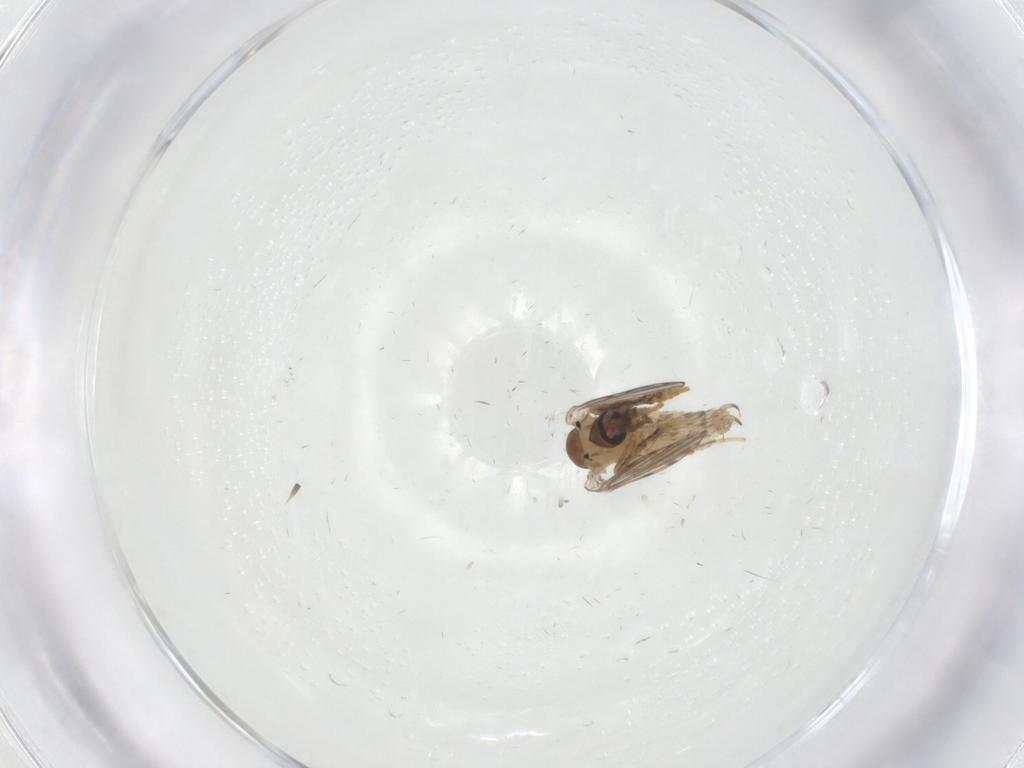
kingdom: Animalia
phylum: Arthropoda
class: Insecta
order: Diptera
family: Psychodidae
